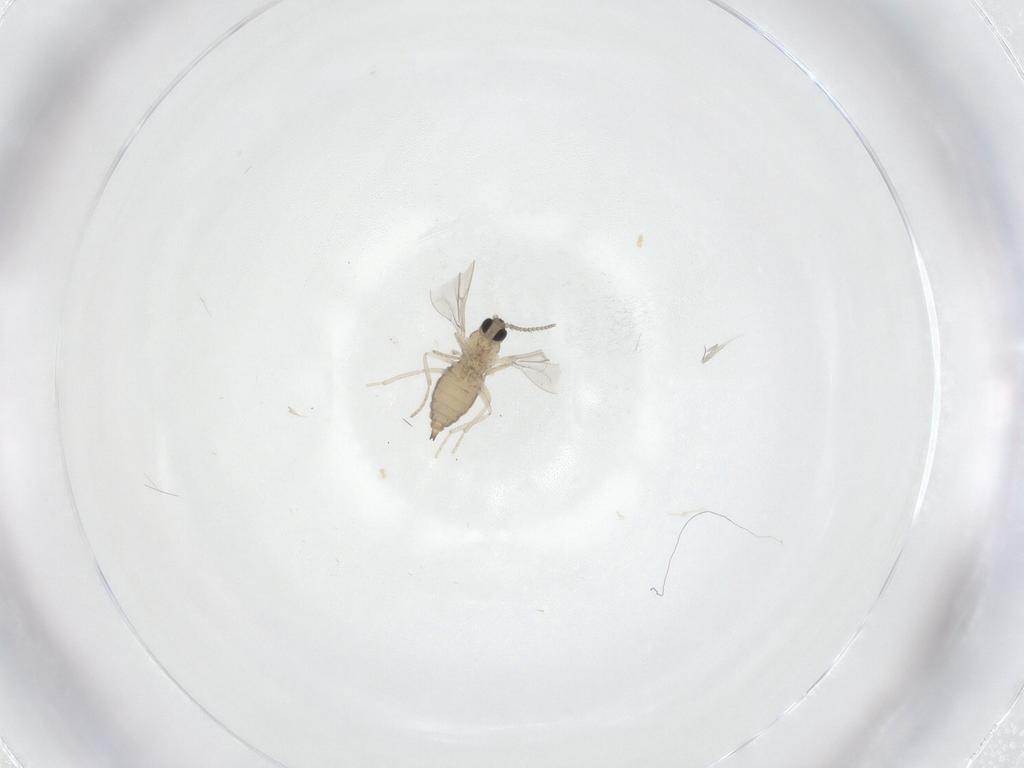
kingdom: Animalia
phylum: Arthropoda
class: Insecta
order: Diptera
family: Cecidomyiidae
